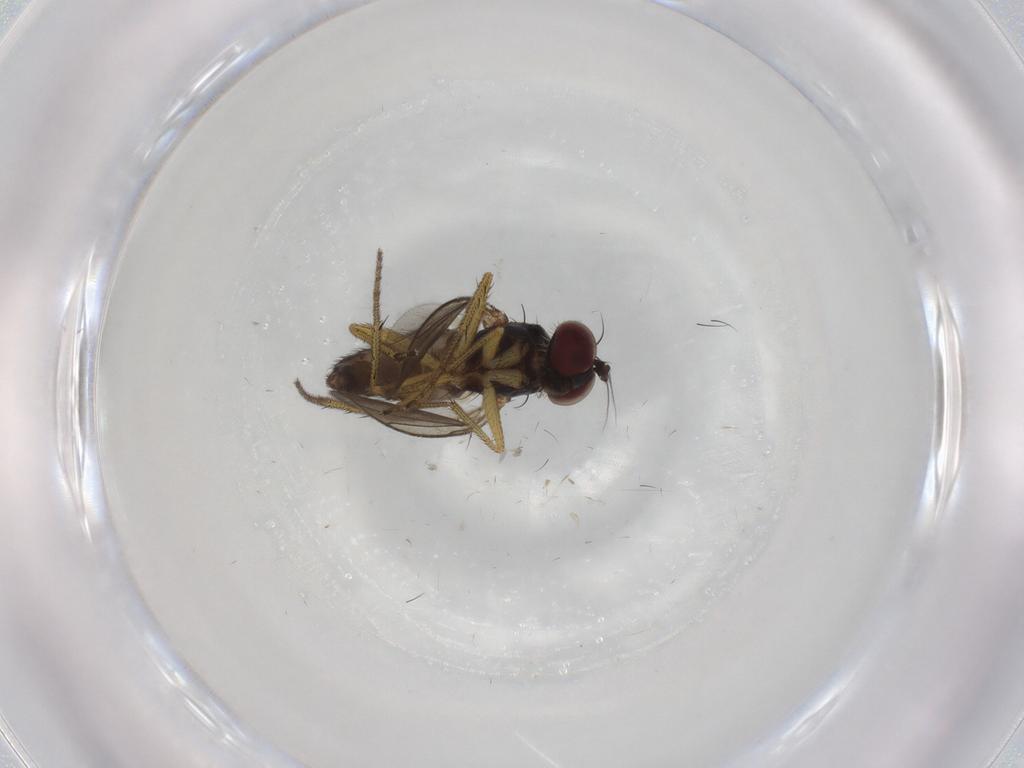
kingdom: Animalia
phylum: Arthropoda
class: Insecta
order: Diptera
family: Dolichopodidae
